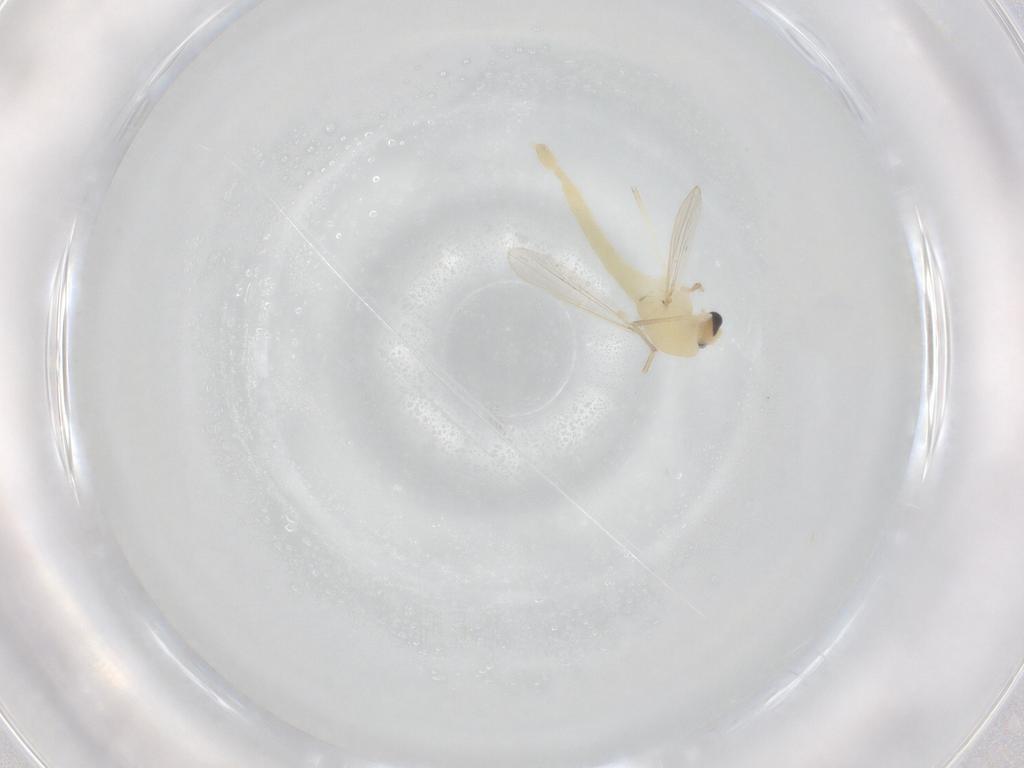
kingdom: Animalia
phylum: Arthropoda
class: Insecta
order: Diptera
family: Chironomidae
